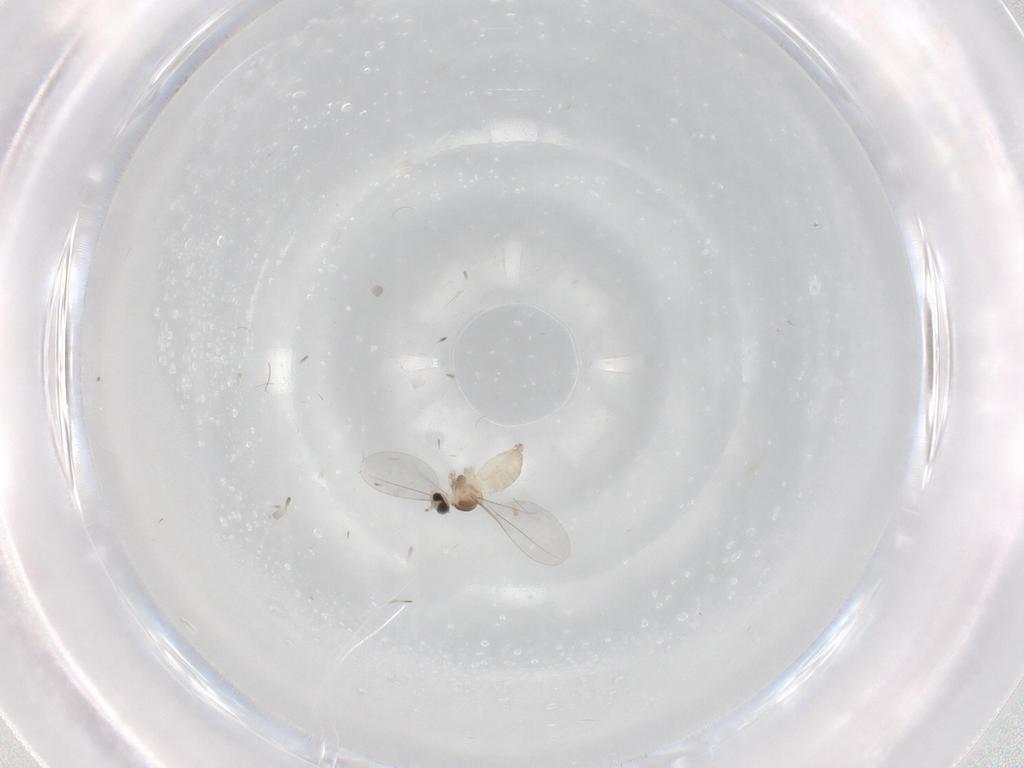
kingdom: Animalia
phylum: Arthropoda
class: Insecta
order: Diptera
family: Cecidomyiidae
